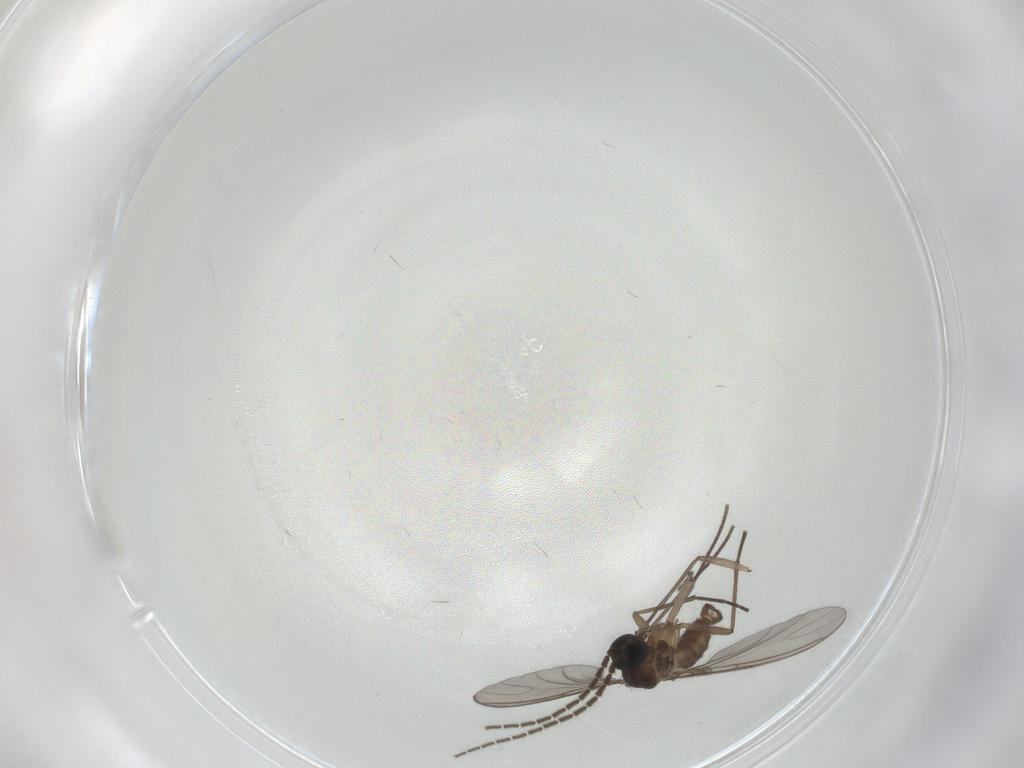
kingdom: Animalia
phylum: Arthropoda
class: Insecta
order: Diptera
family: Sciaridae
